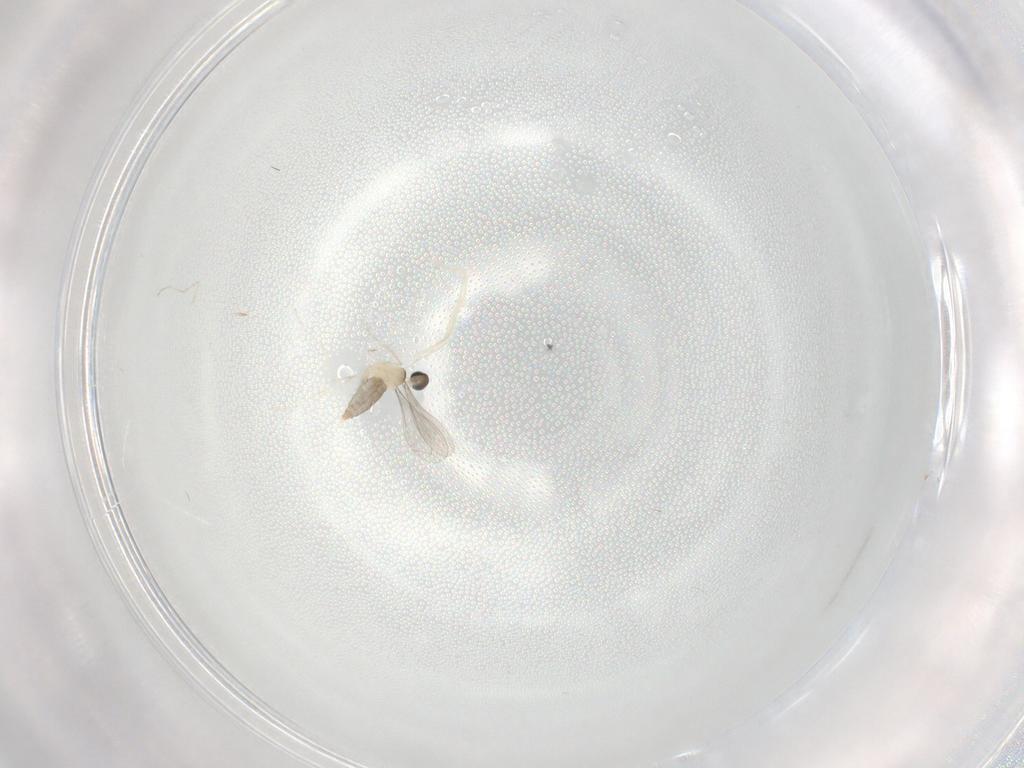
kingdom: Animalia
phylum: Arthropoda
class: Insecta
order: Diptera
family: Cecidomyiidae
